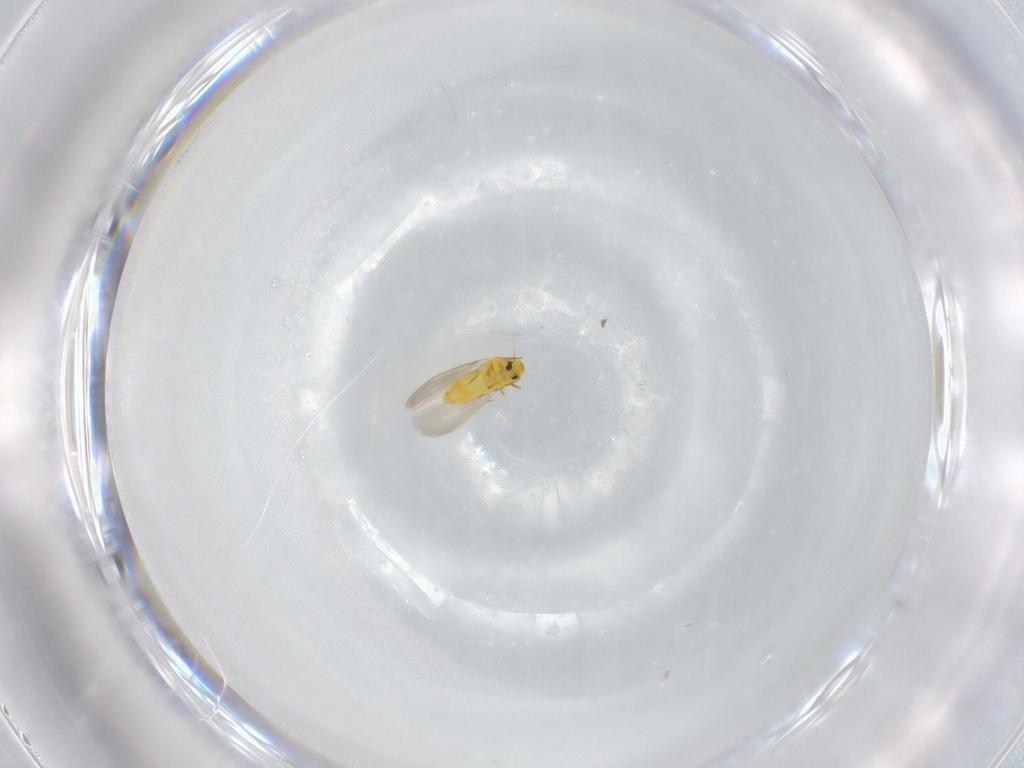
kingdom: Animalia
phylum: Arthropoda
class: Insecta
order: Hemiptera
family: Aleyrodidae
